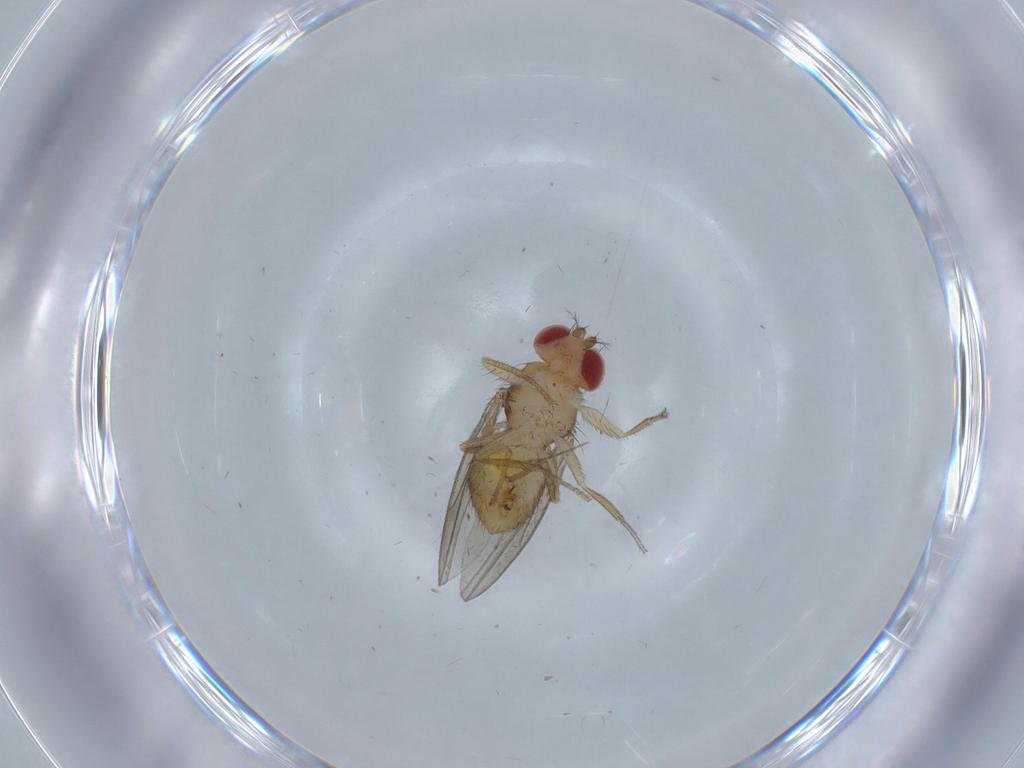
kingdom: Animalia
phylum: Arthropoda
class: Insecta
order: Diptera
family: Drosophilidae
